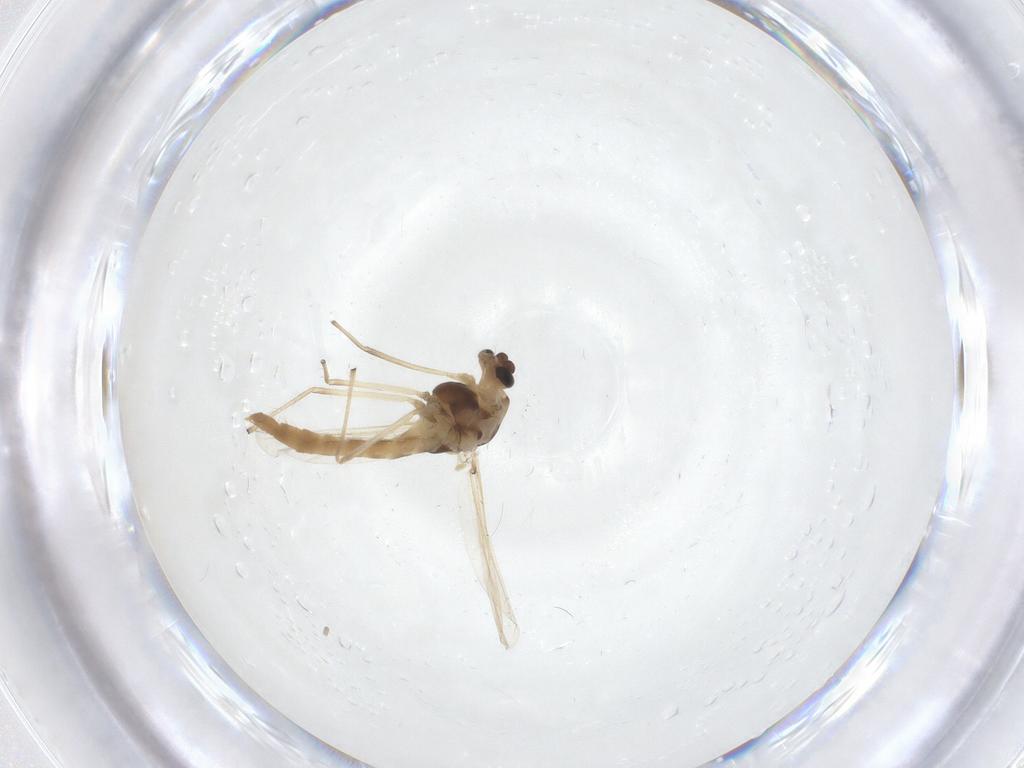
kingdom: Animalia
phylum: Arthropoda
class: Insecta
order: Diptera
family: Chironomidae
